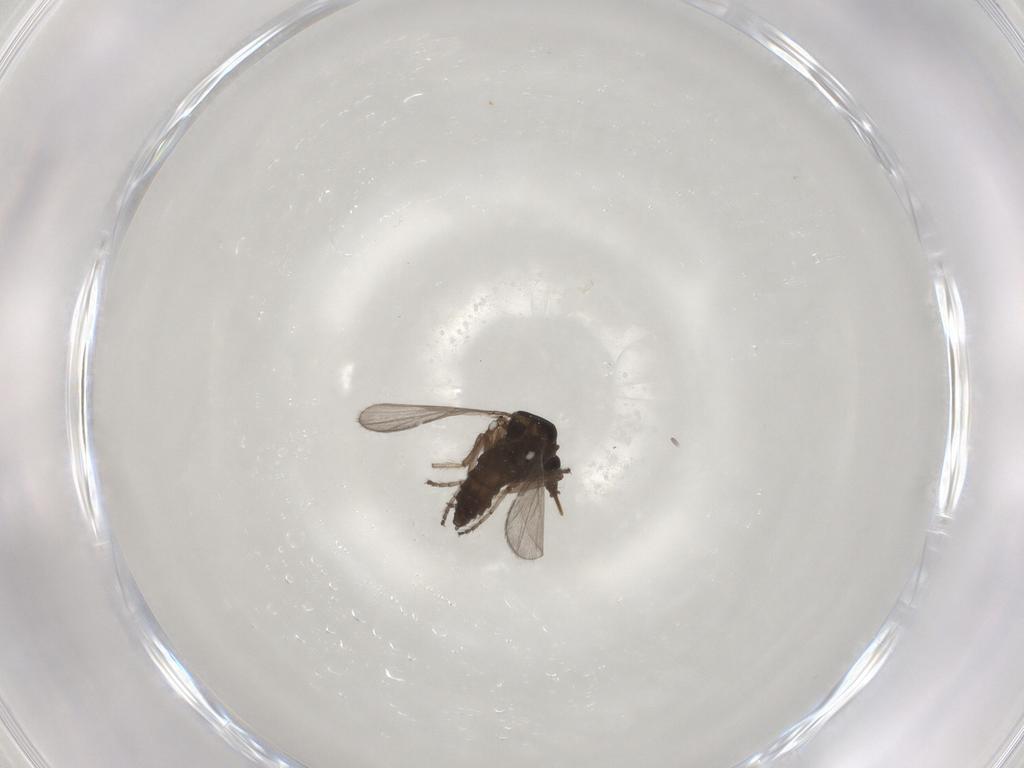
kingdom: Animalia
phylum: Arthropoda
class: Insecta
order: Diptera
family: Ceratopogonidae
